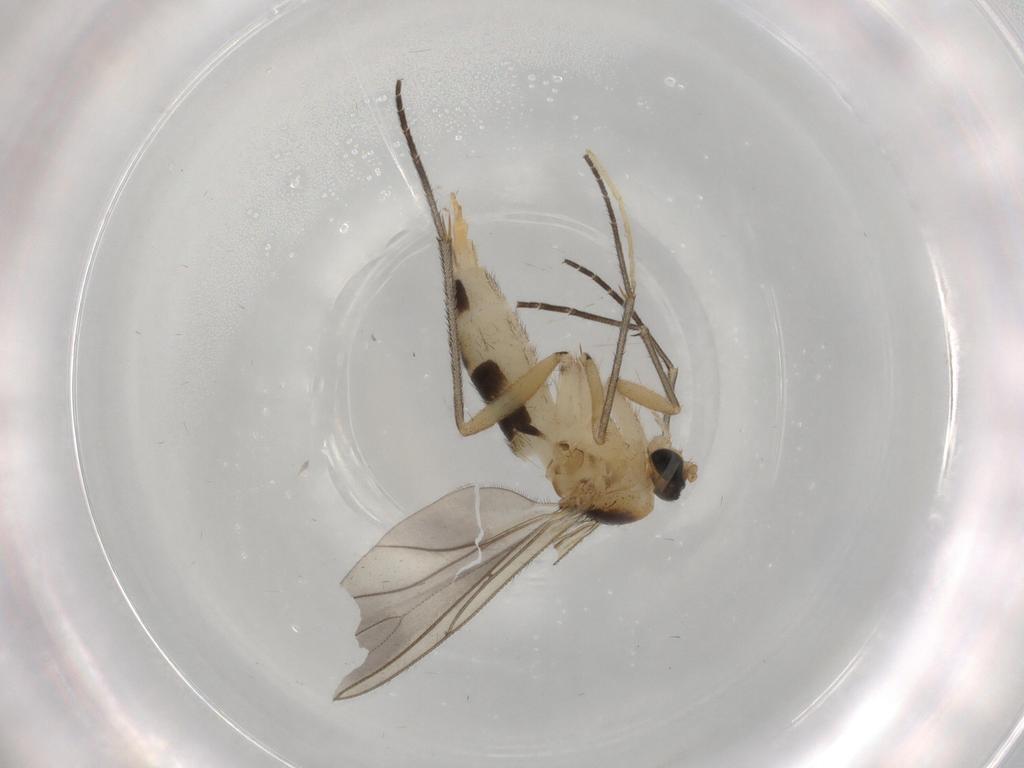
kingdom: Animalia
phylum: Arthropoda
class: Insecta
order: Diptera
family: Sciaridae
